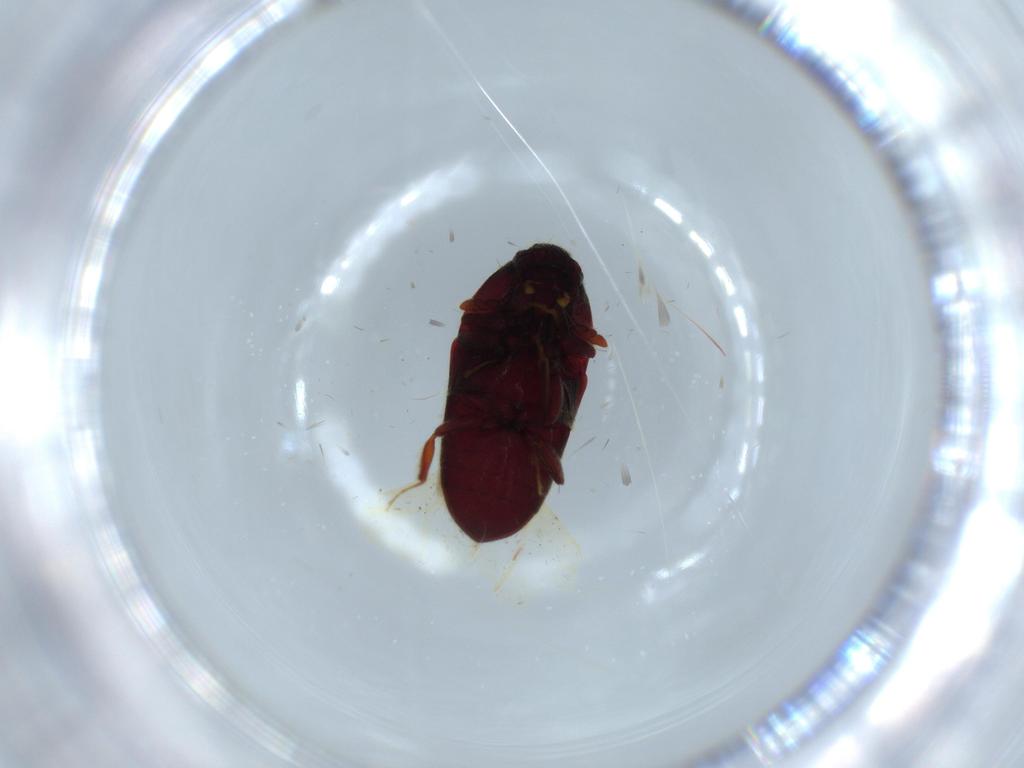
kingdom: Animalia
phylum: Arthropoda
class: Insecta
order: Coleoptera
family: Throscidae
